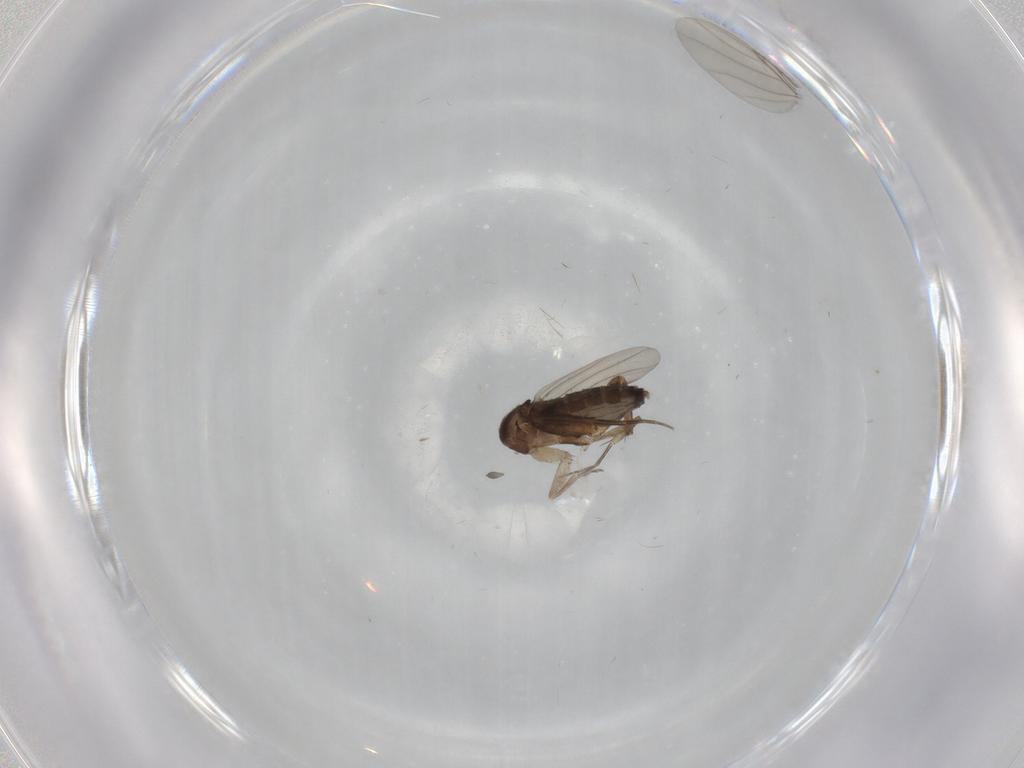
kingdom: Animalia
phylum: Arthropoda
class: Insecta
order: Diptera
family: Phoridae
